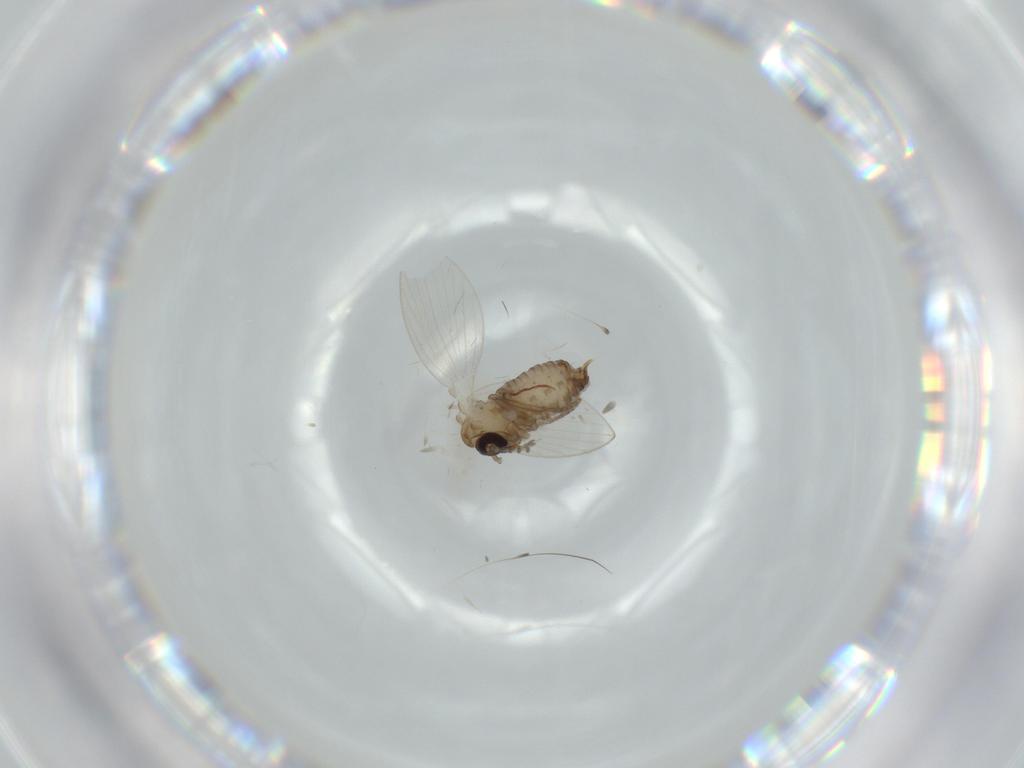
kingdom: Animalia
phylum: Arthropoda
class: Insecta
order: Diptera
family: Psychodidae
